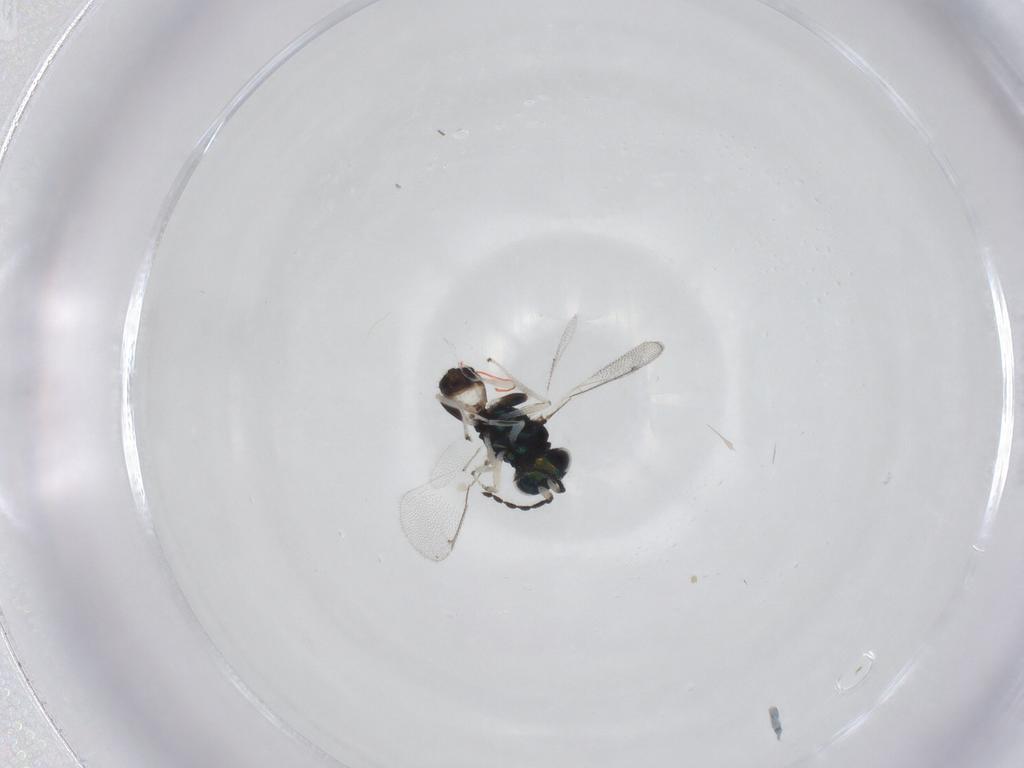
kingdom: Animalia
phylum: Arthropoda
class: Insecta
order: Hymenoptera
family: Eulophidae
